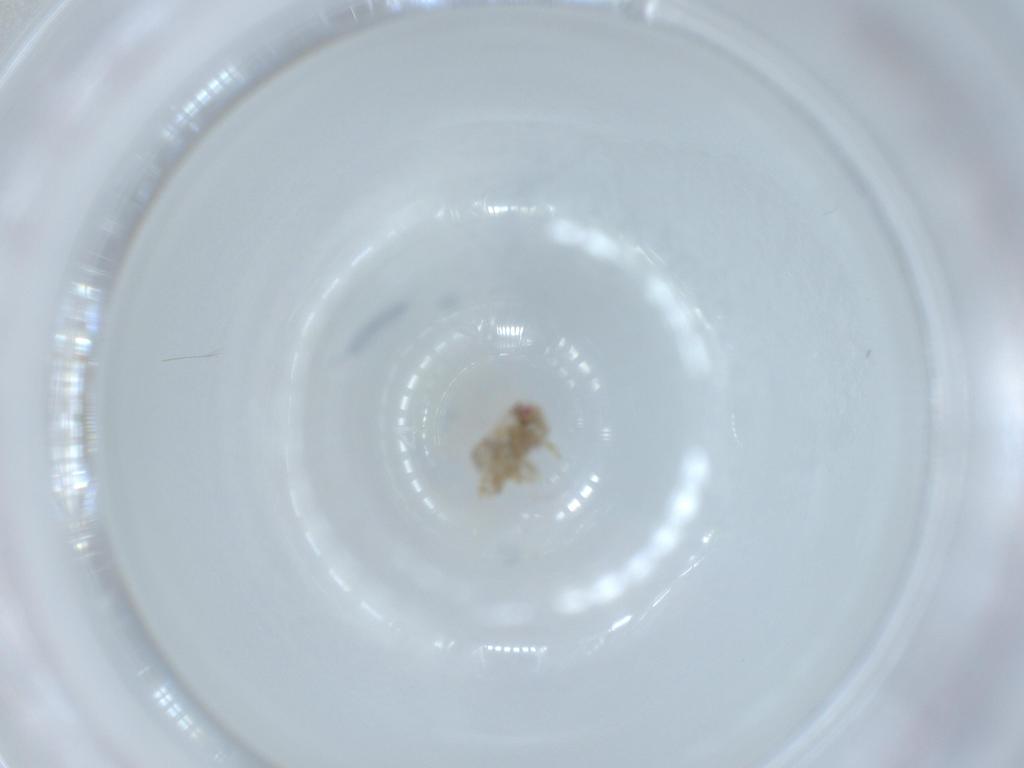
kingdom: Animalia
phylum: Arthropoda
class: Insecta
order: Hemiptera
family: Acanaloniidae
